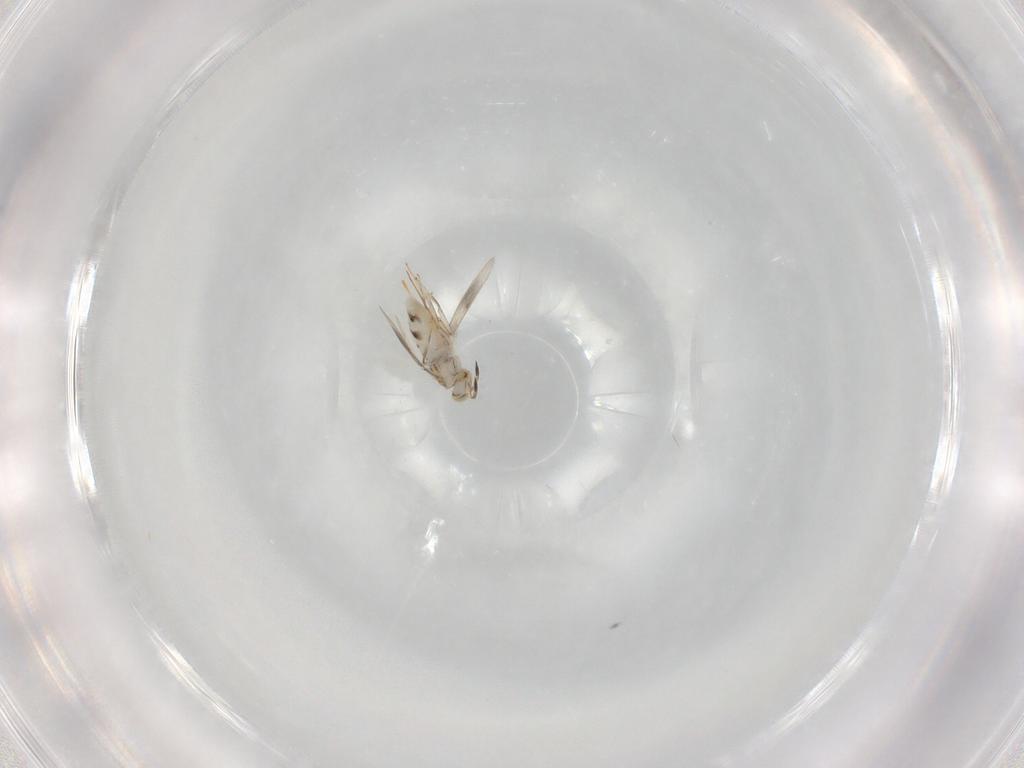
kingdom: Animalia
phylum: Arthropoda
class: Insecta
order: Hymenoptera
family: Aphelinidae
